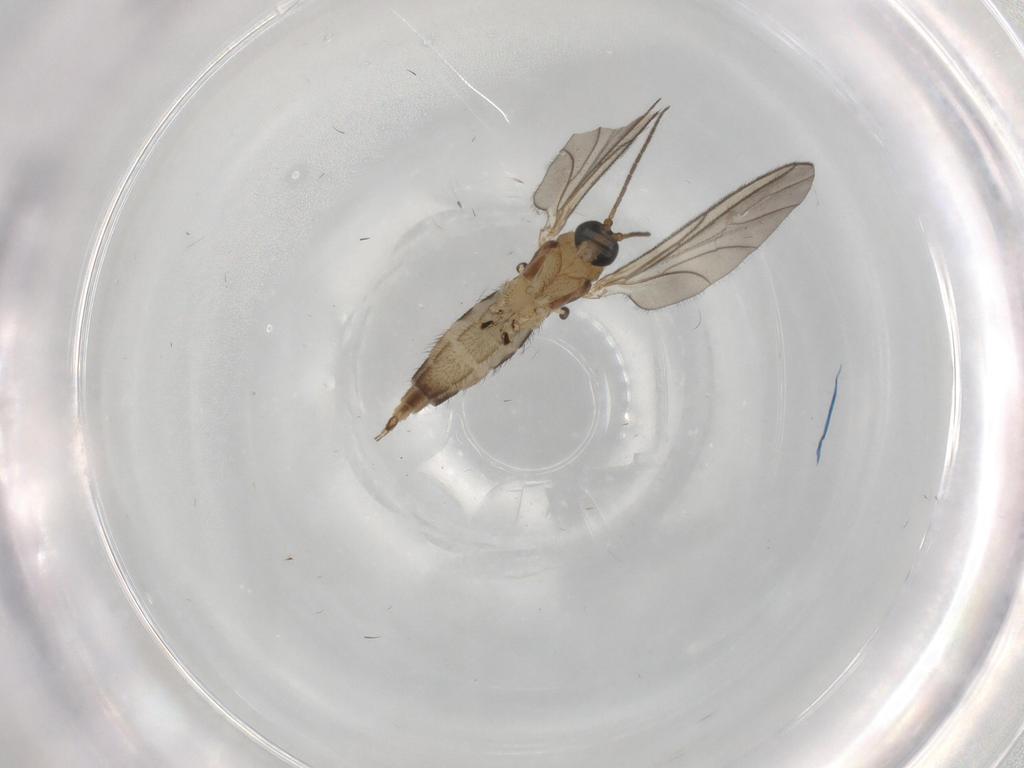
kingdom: Animalia
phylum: Arthropoda
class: Insecta
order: Diptera
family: Sciaridae
